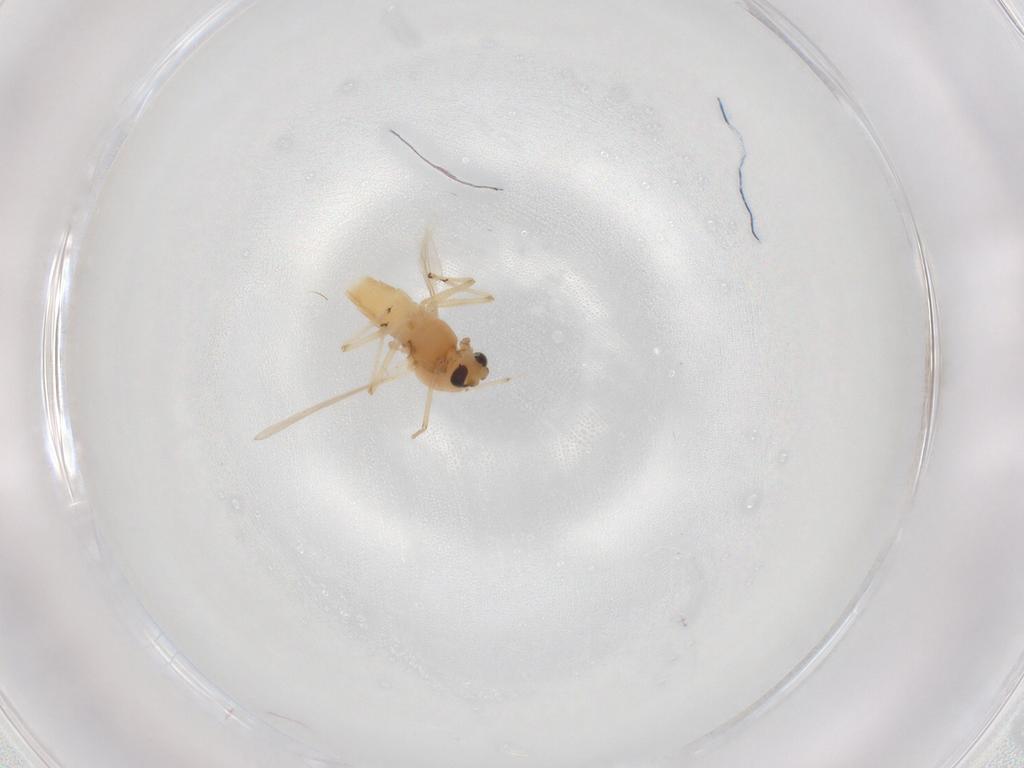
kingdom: Animalia
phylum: Arthropoda
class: Insecta
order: Diptera
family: Chironomidae
